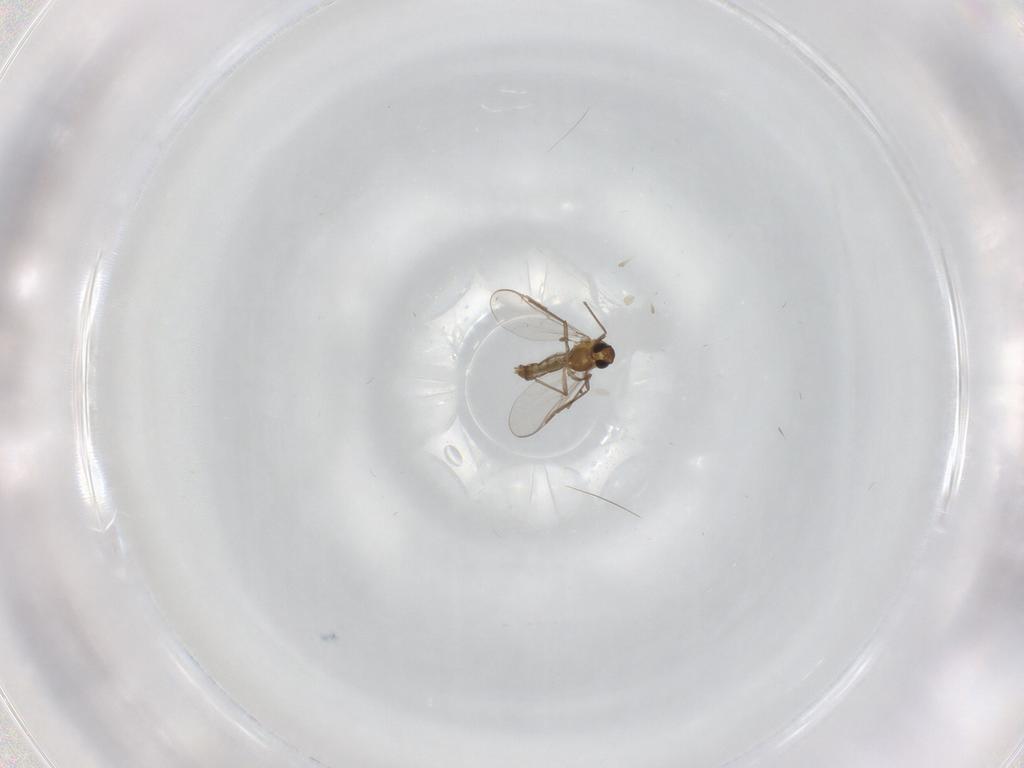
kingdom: Animalia
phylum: Arthropoda
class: Insecta
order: Diptera
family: Chironomidae
